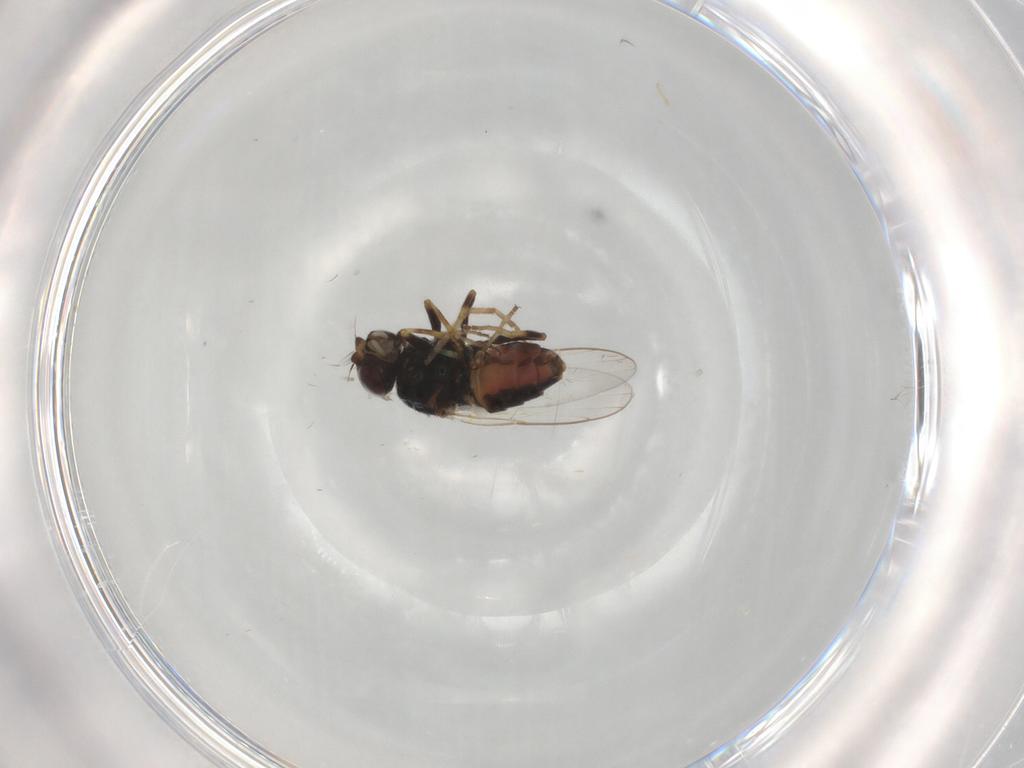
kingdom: Animalia
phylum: Arthropoda
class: Insecta
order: Diptera
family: Chloropidae
